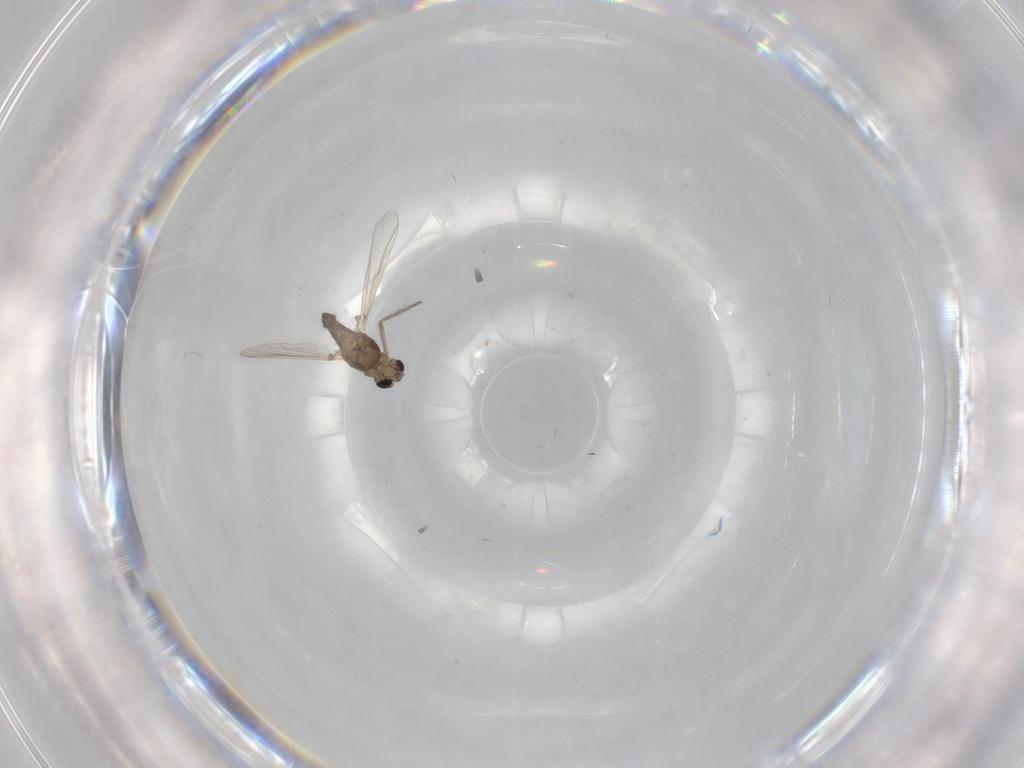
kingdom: Animalia
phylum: Arthropoda
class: Insecta
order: Diptera
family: Chironomidae
